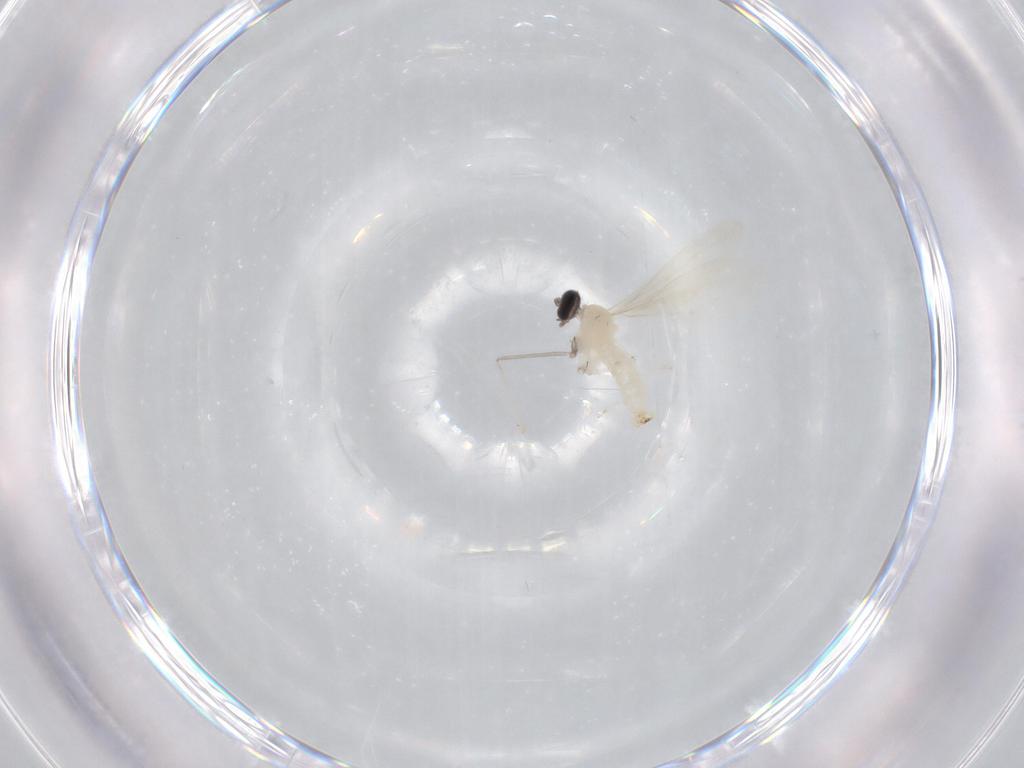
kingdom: Animalia
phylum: Arthropoda
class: Insecta
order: Diptera
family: Cecidomyiidae
